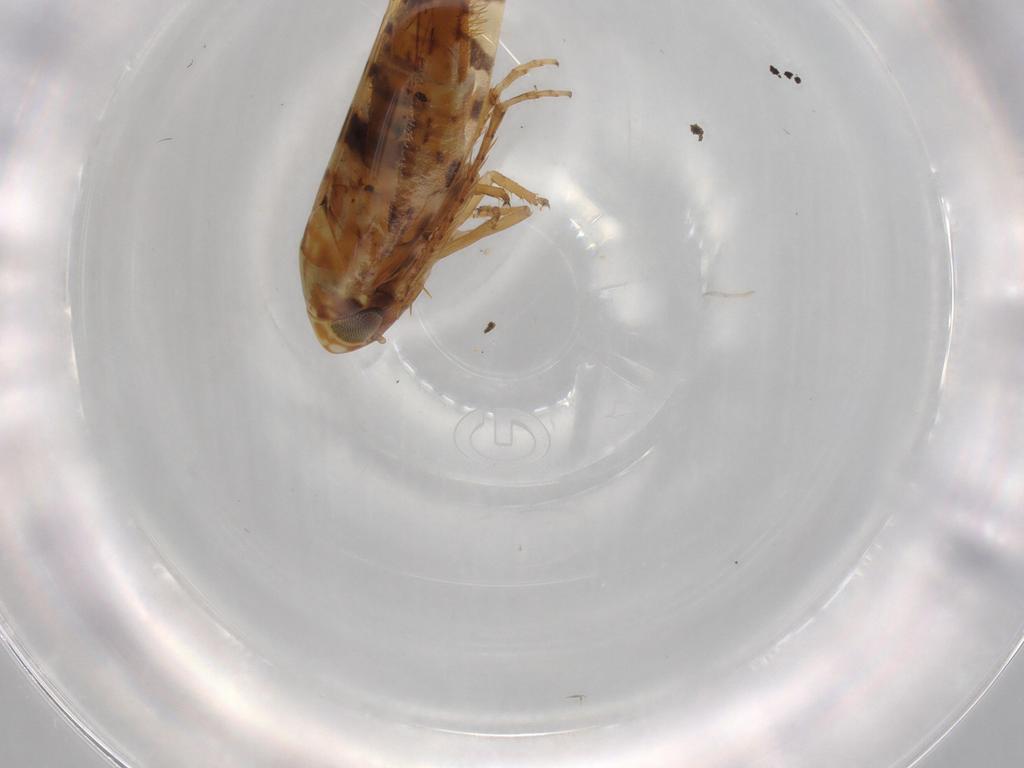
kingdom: Animalia
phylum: Arthropoda
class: Insecta
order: Hemiptera
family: Cicadellidae
